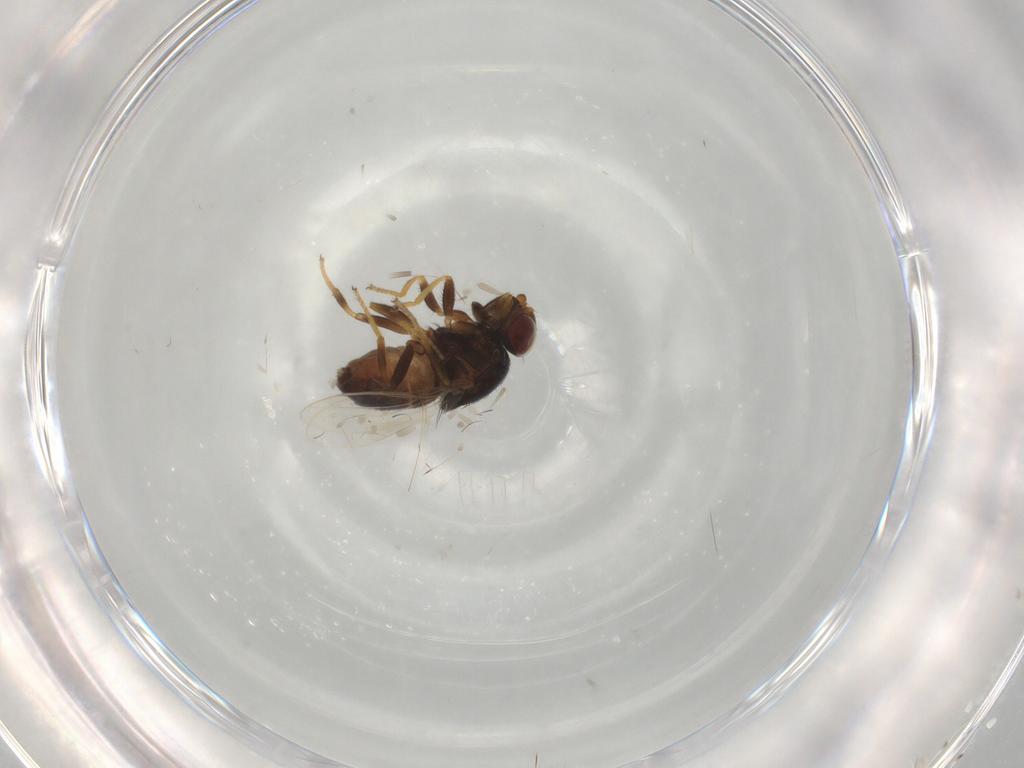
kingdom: Animalia
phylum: Arthropoda
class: Insecta
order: Diptera
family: Chloropidae
